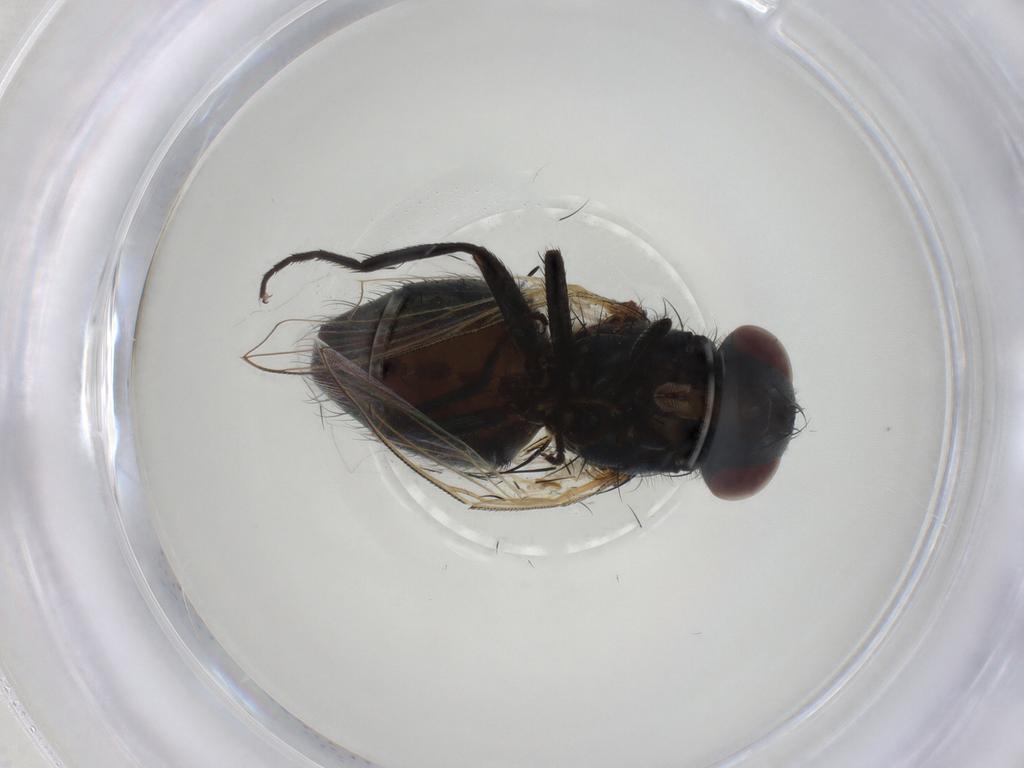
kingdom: Animalia
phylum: Arthropoda
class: Insecta
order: Diptera
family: Muscidae
